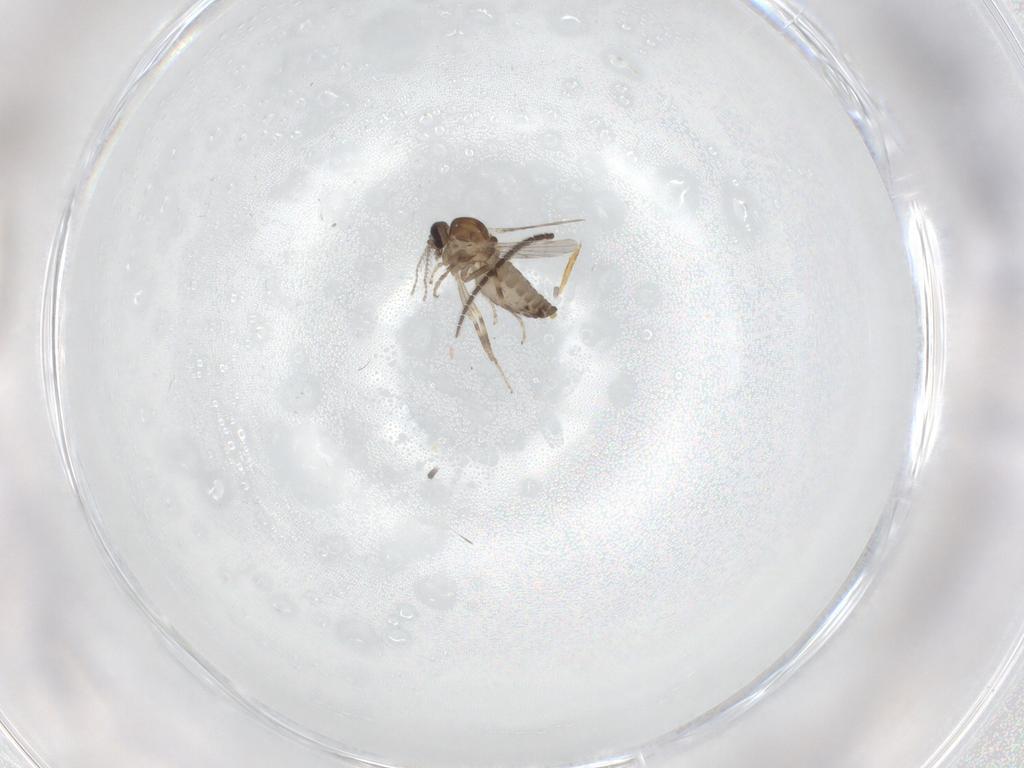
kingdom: Animalia
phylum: Arthropoda
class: Insecta
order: Diptera
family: Ceratopogonidae
